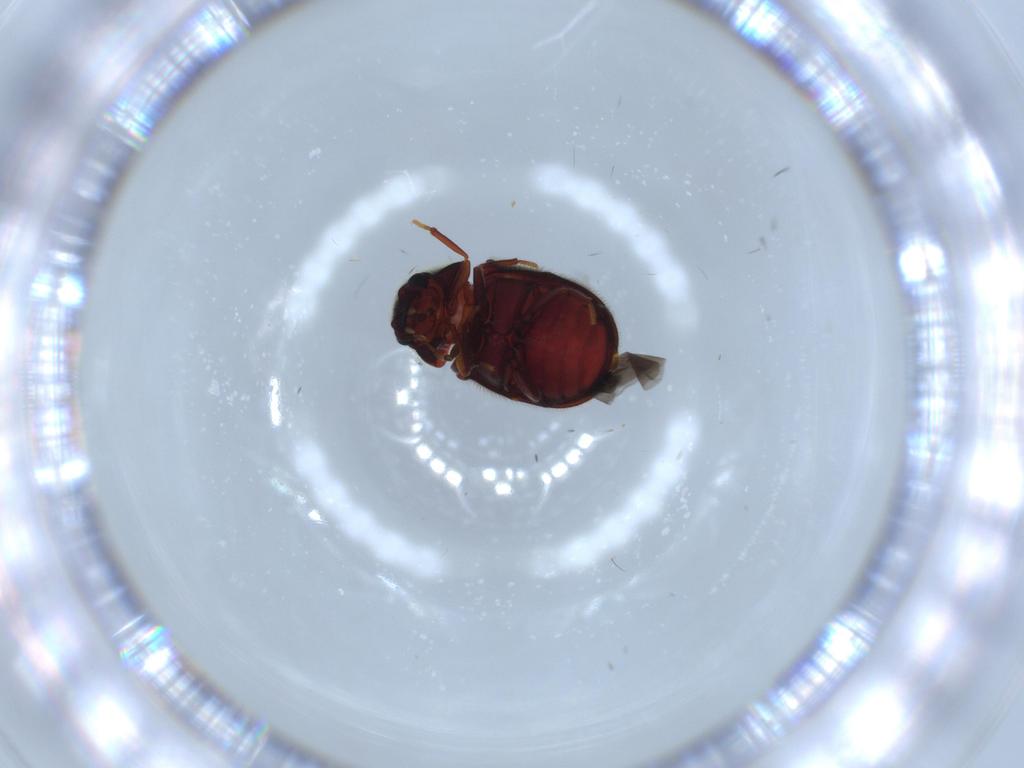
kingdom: Animalia
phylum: Arthropoda
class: Insecta
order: Coleoptera
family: Ptinidae
